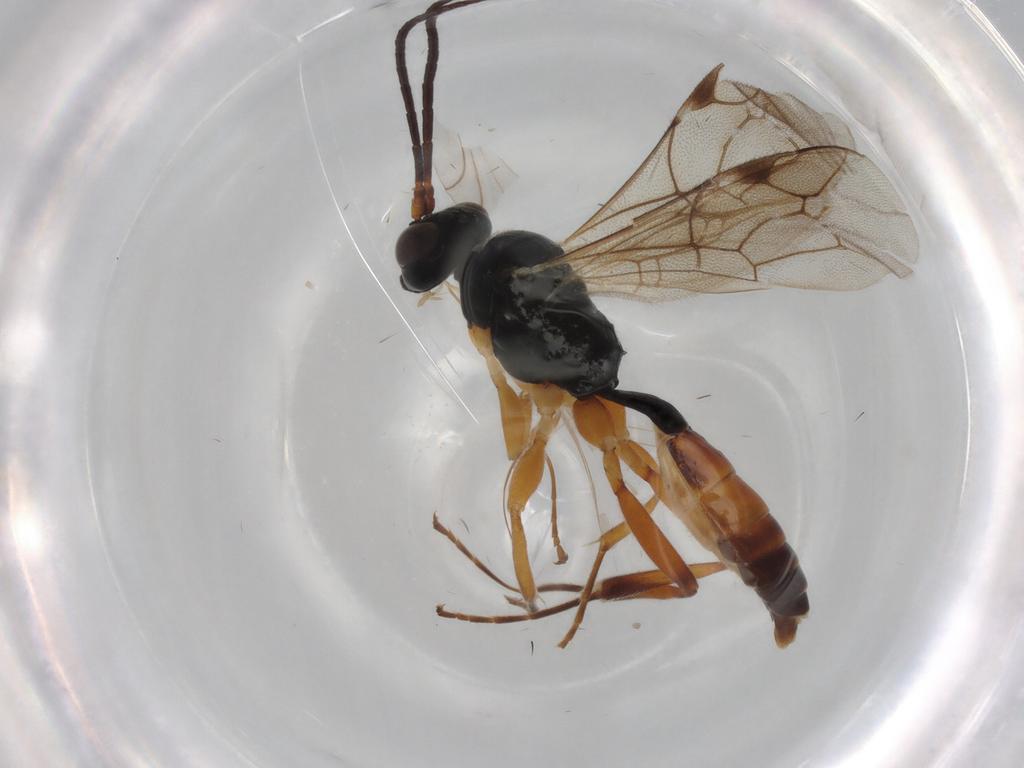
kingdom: Animalia
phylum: Arthropoda
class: Insecta
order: Hymenoptera
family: Ichneumonidae
